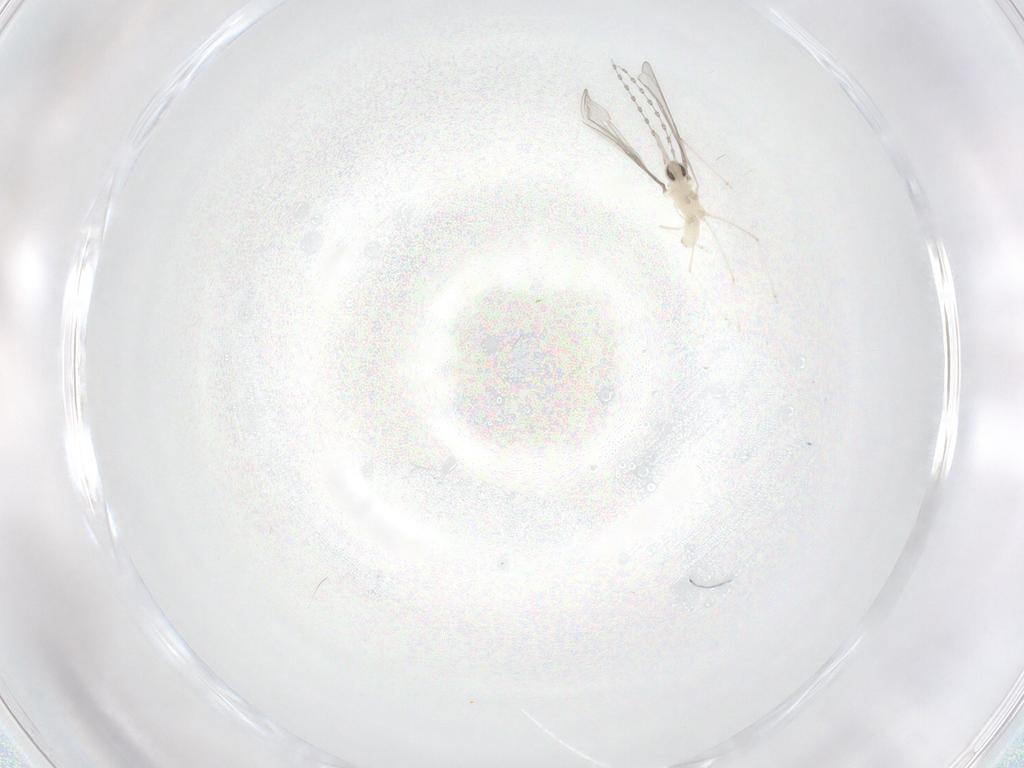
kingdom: Animalia
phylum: Arthropoda
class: Insecta
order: Diptera
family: Cecidomyiidae
